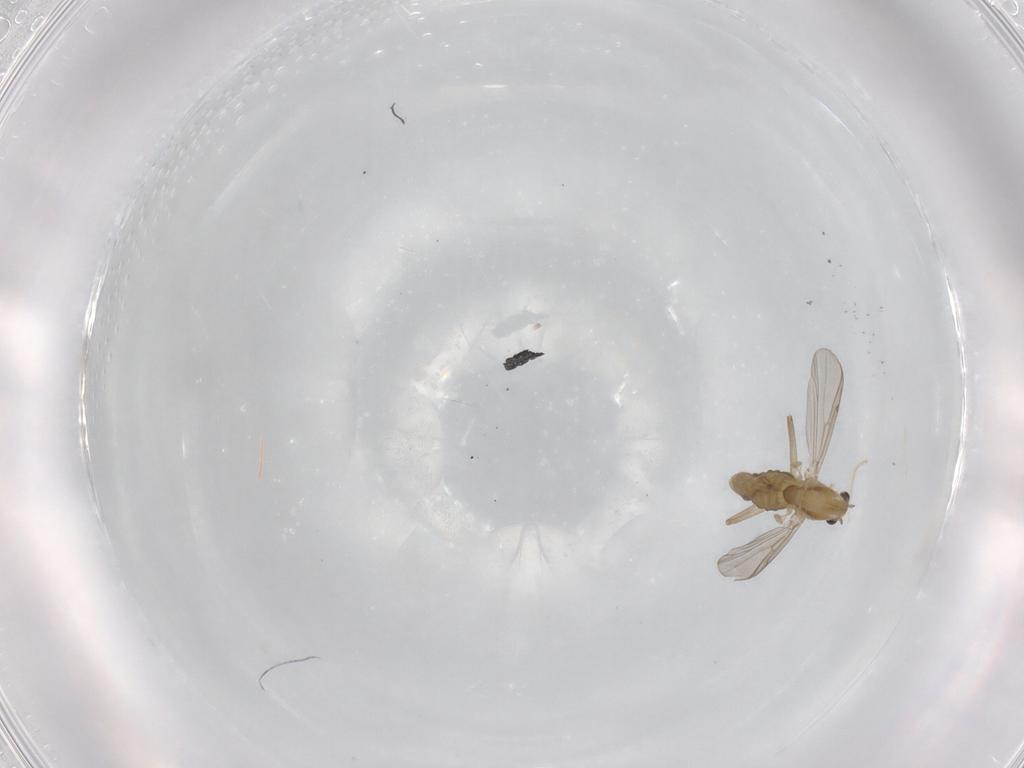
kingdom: Animalia
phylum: Arthropoda
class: Insecta
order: Diptera
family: Chironomidae
